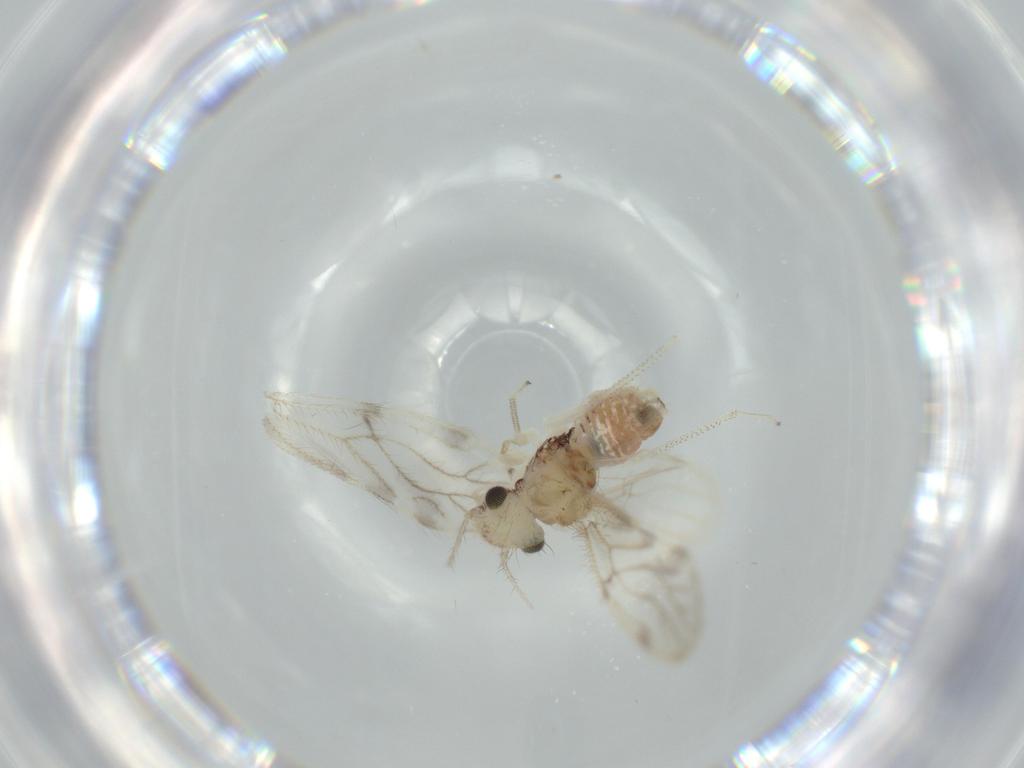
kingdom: Animalia
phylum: Arthropoda
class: Insecta
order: Psocodea
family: Pseudocaeciliidae
